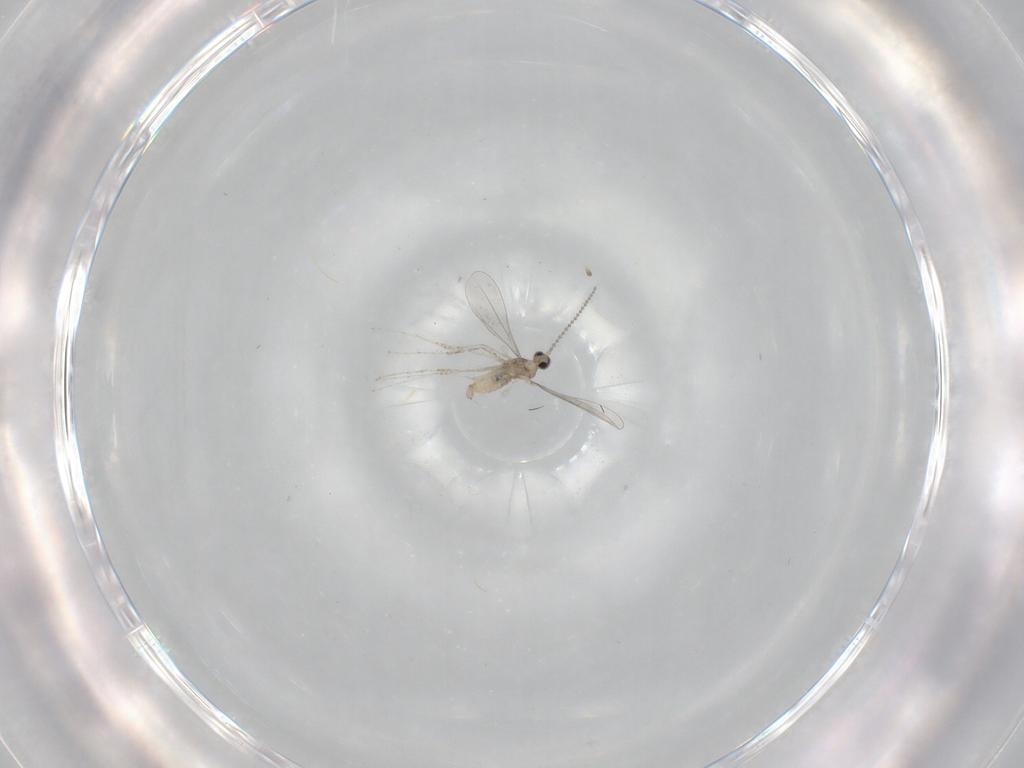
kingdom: Animalia
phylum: Arthropoda
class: Insecta
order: Diptera
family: Cecidomyiidae
